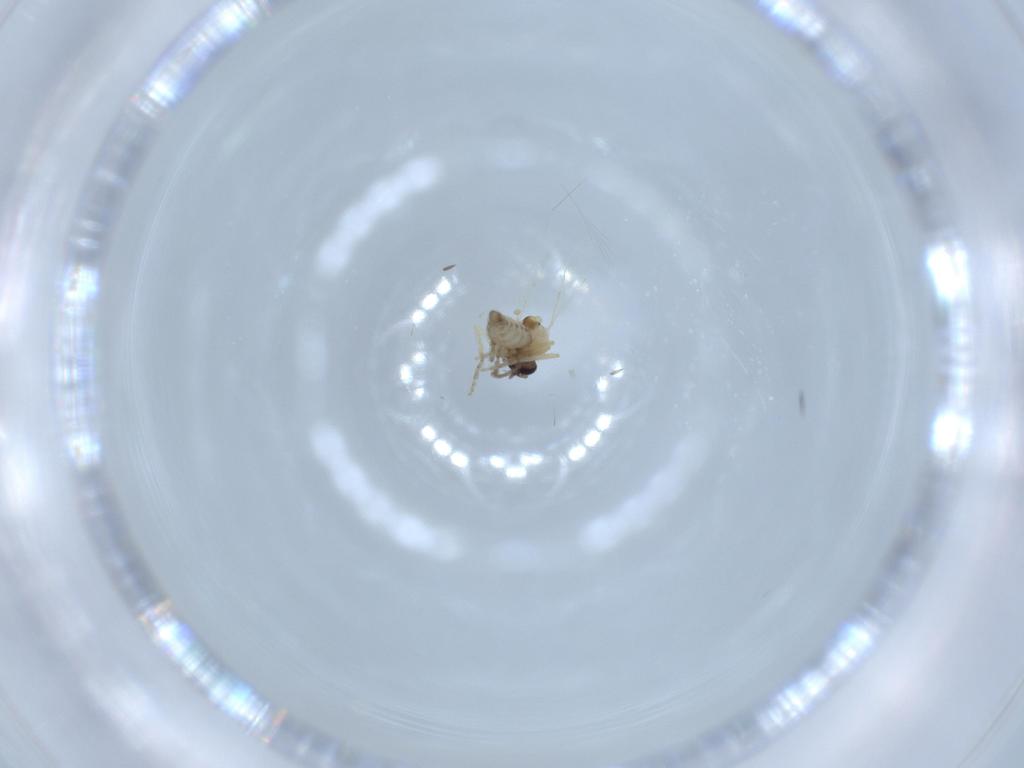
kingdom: Animalia
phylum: Arthropoda
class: Insecta
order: Diptera
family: Ceratopogonidae
